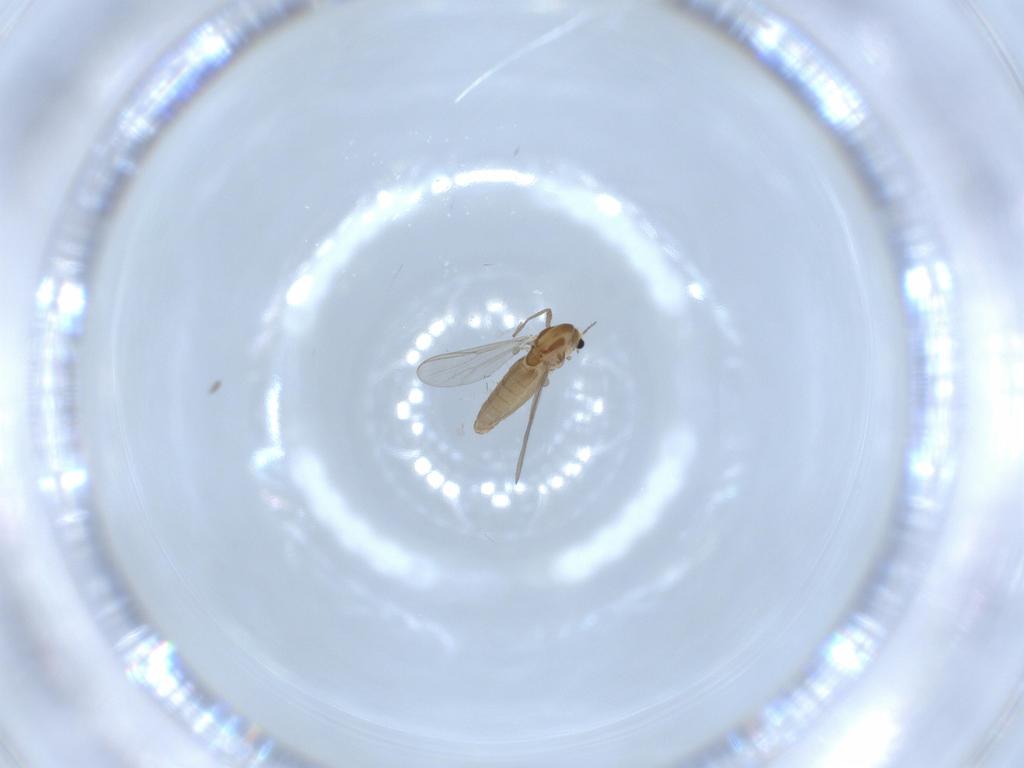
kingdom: Animalia
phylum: Arthropoda
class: Insecta
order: Diptera
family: Chironomidae
